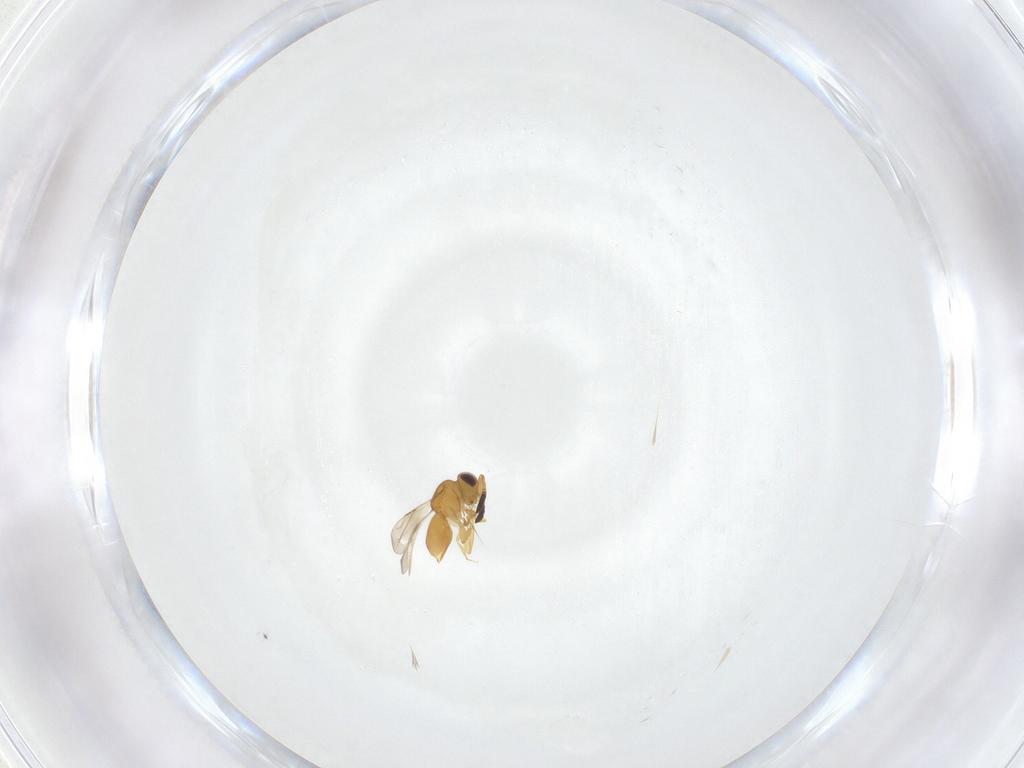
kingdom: Animalia
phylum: Arthropoda
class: Insecta
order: Hymenoptera
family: Ceraphronidae
